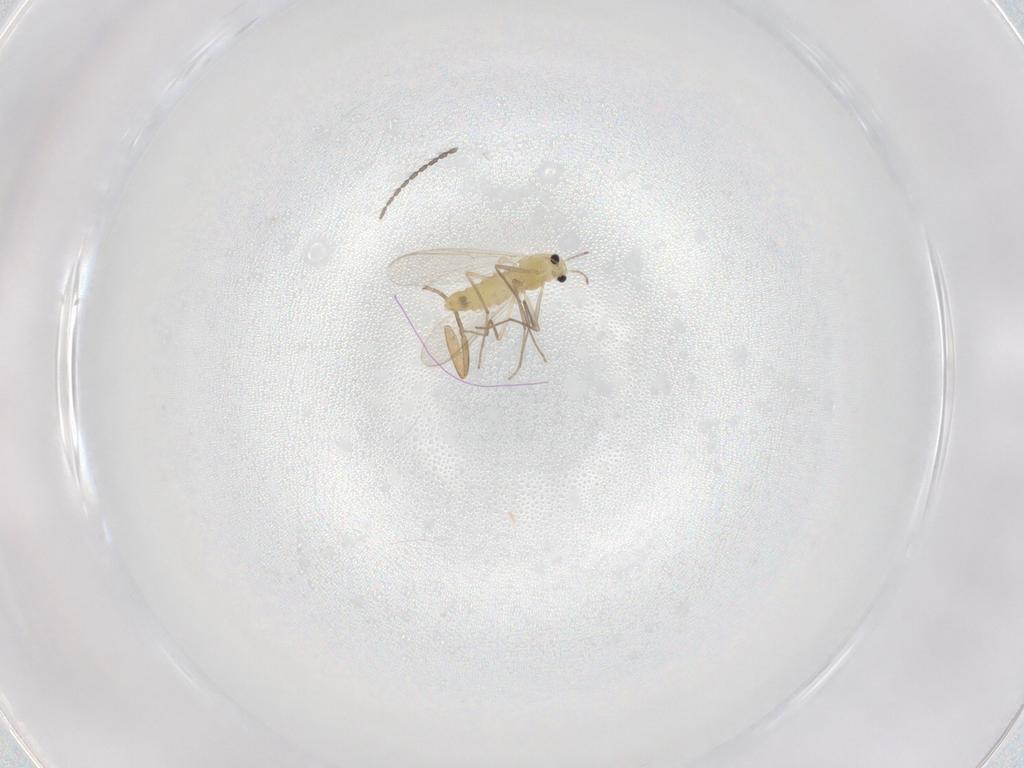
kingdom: Animalia
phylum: Arthropoda
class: Insecta
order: Diptera
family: Chironomidae
